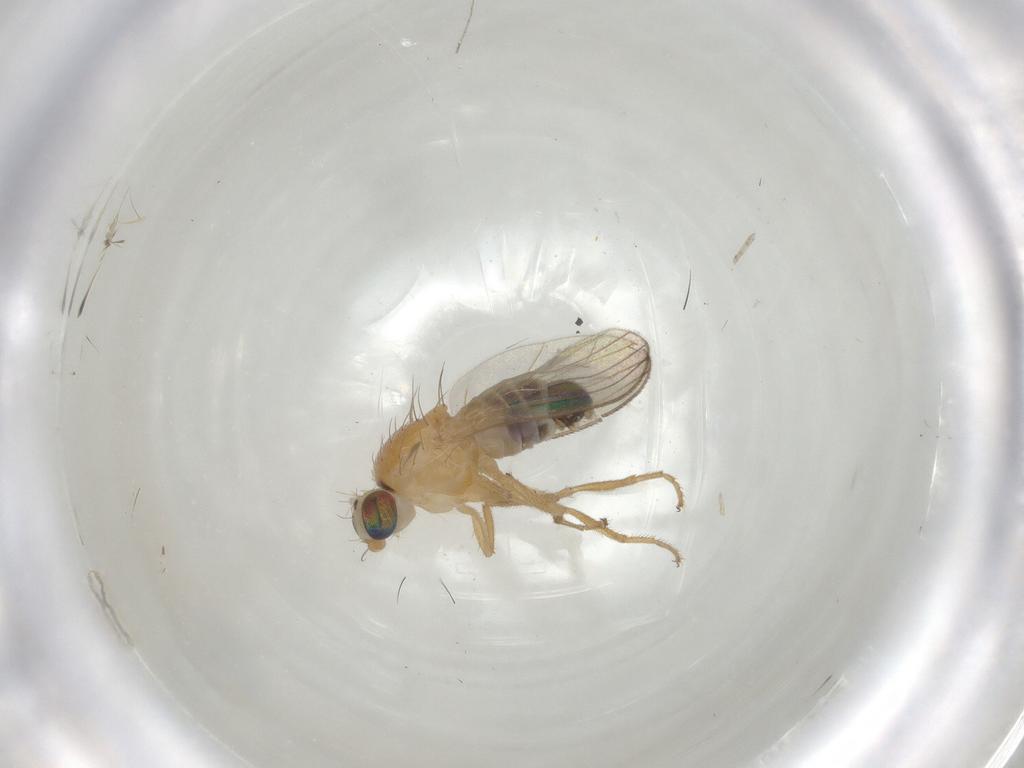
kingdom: Animalia
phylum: Arthropoda
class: Insecta
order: Diptera
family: Chyromyidae
